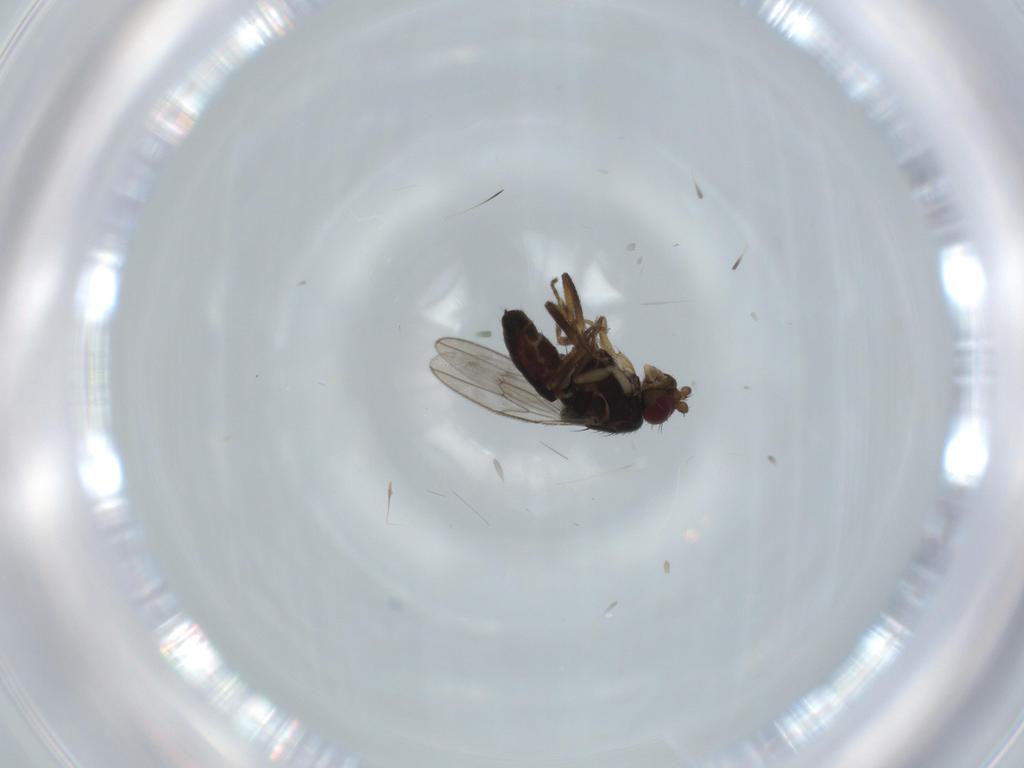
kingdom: Animalia
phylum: Arthropoda
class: Insecta
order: Diptera
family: Sphaeroceridae
